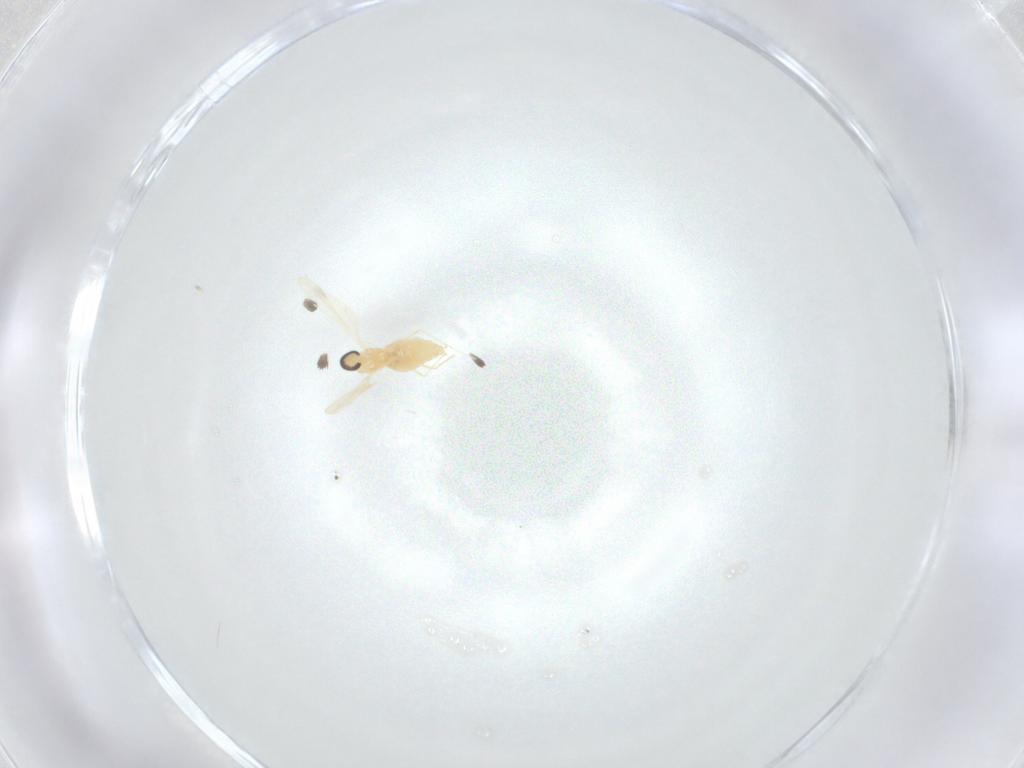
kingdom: Animalia
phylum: Arthropoda
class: Insecta
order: Diptera
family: Cecidomyiidae
